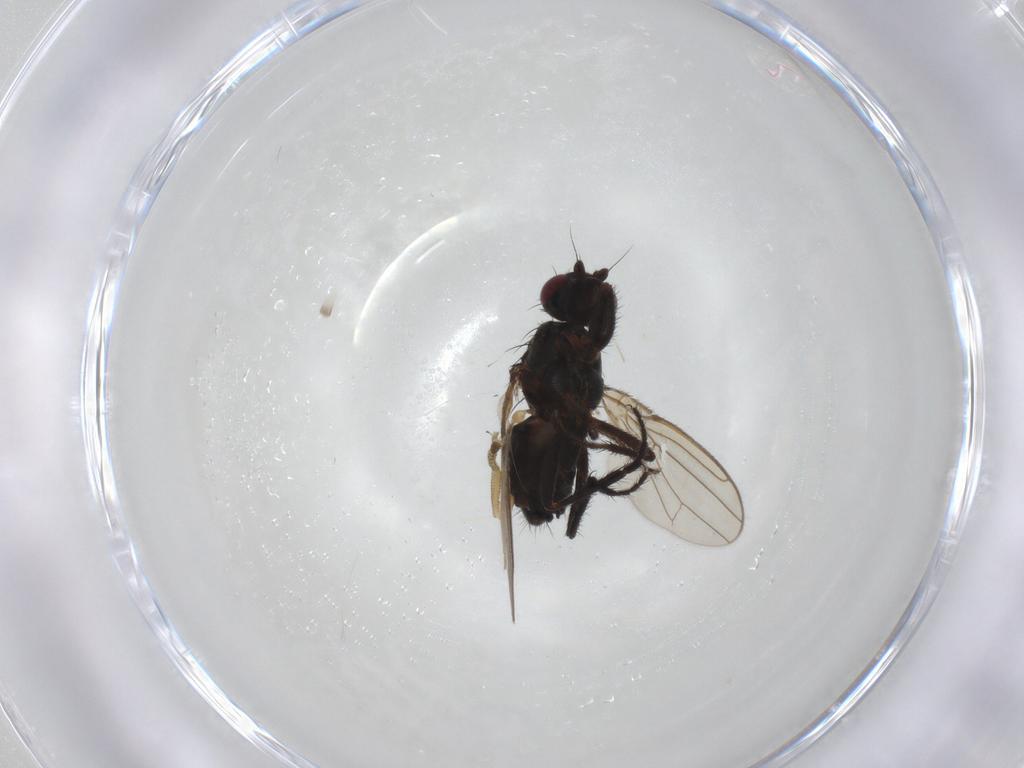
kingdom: Animalia
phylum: Arthropoda
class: Insecta
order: Diptera
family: Sphaeroceridae
